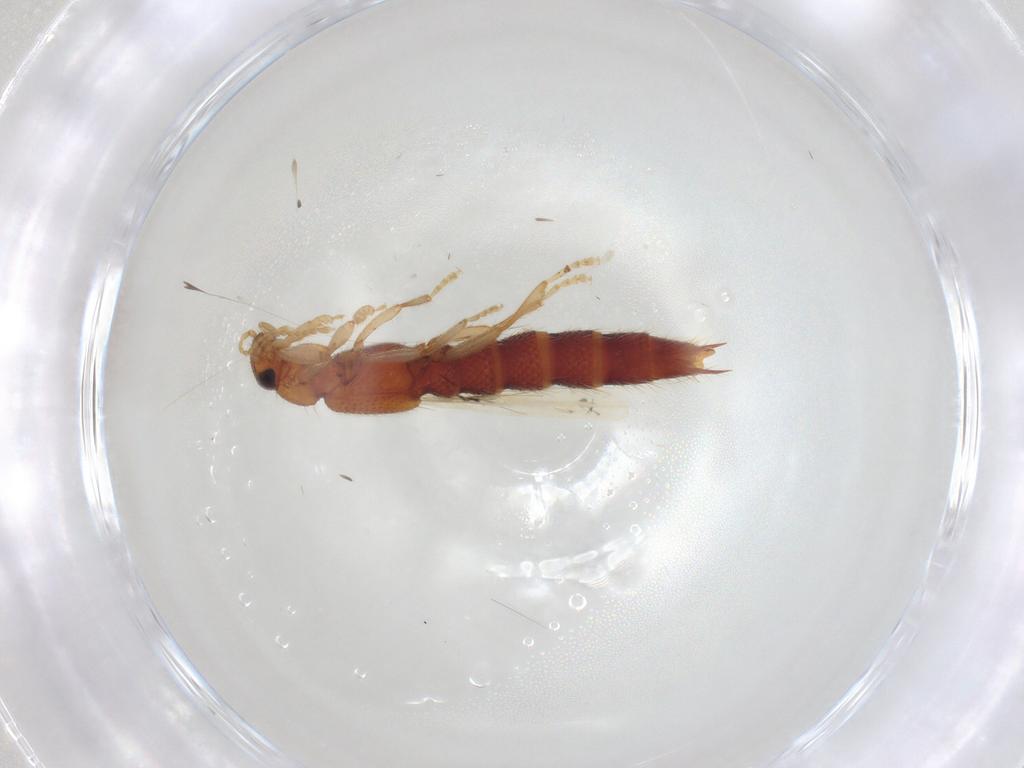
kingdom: Animalia
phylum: Arthropoda
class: Insecta
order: Coleoptera
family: Staphylinidae
